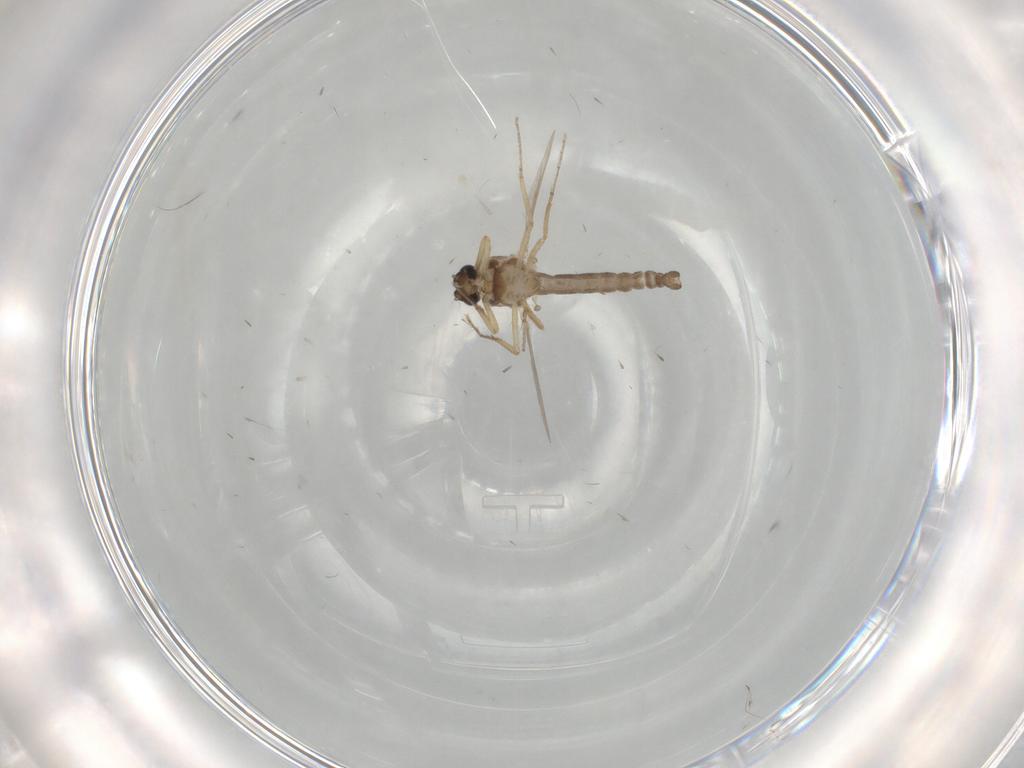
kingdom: Animalia
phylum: Arthropoda
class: Insecta
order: Diptera
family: Ceratopogonidae
